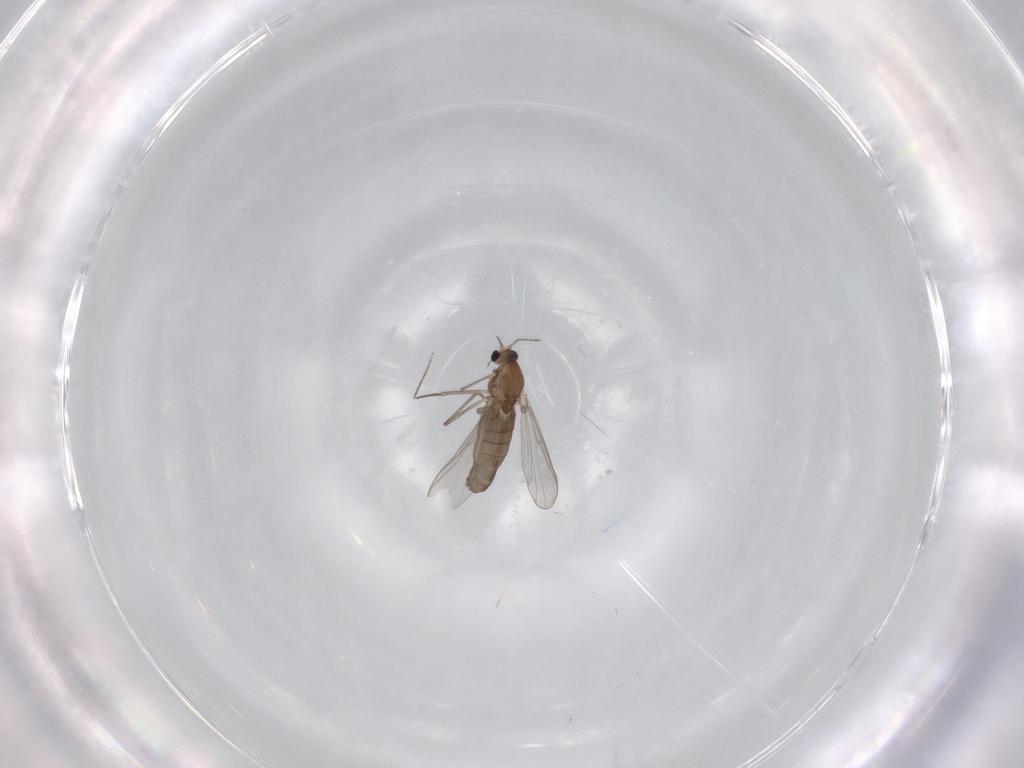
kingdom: Animalia
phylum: Arthropoda
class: Insecta
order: Diptera
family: Chironomidae
